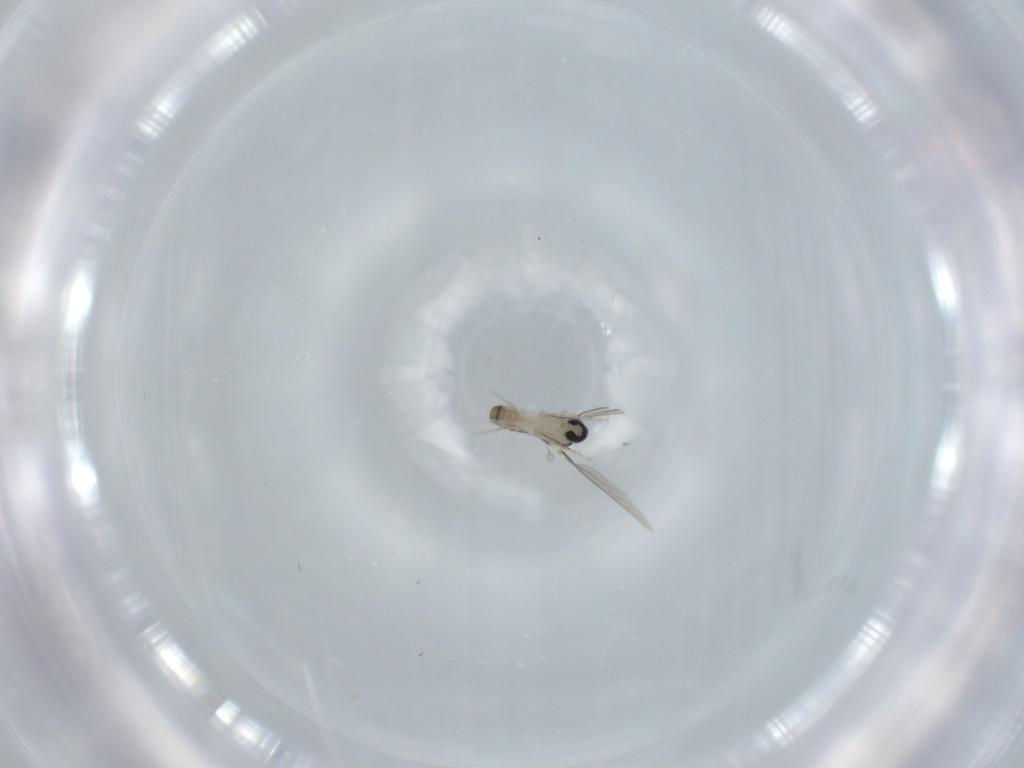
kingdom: Animalia
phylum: Arthropoda
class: Insecta
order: Diptera
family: Cecidomyiidae
